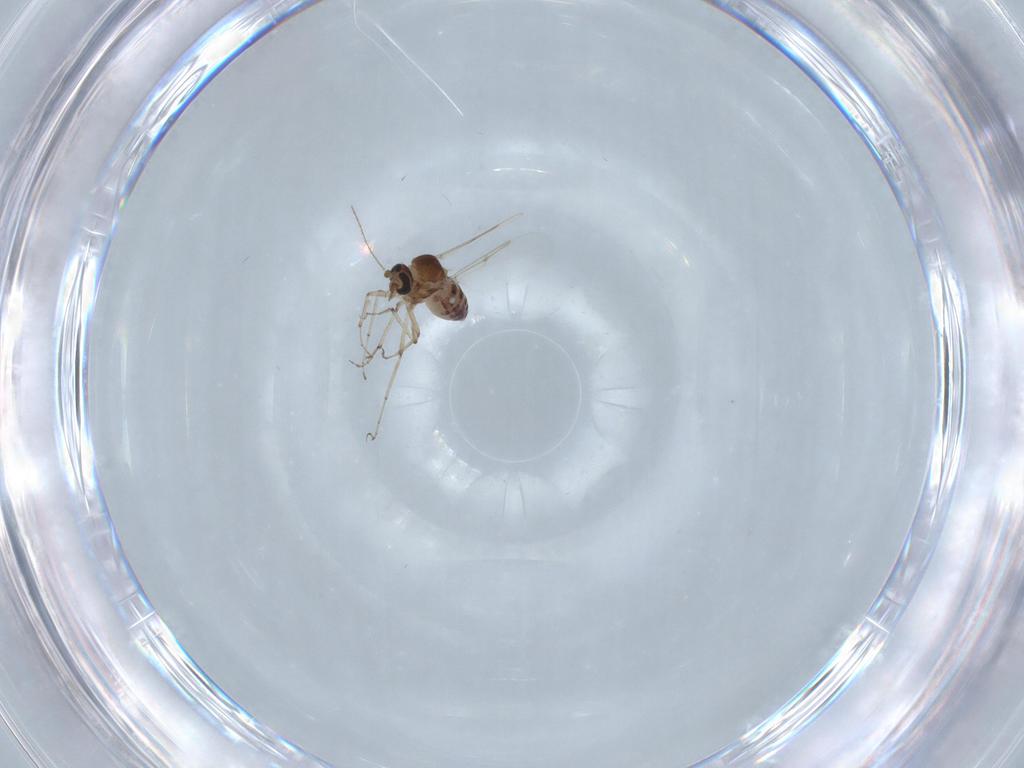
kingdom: Animalia
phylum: Arthropoda
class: Insecta
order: Diptera
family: Ceratopogonidae
